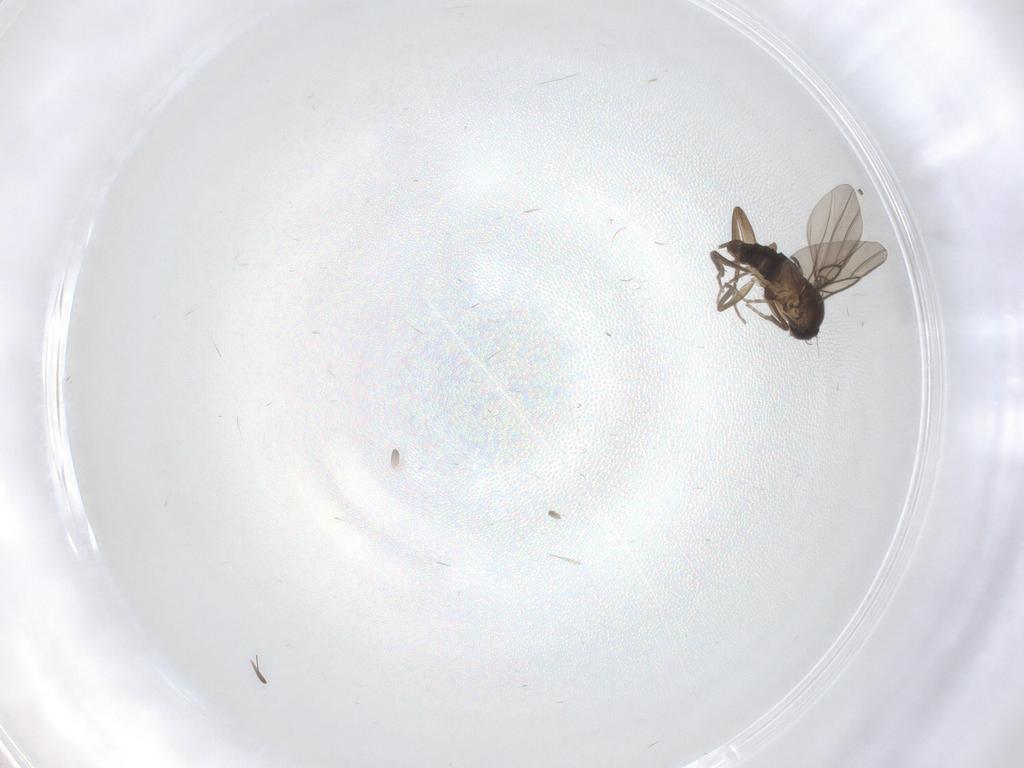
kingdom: Animalia
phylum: Arthropoda
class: Insecta
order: Diptera
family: Phoridae
